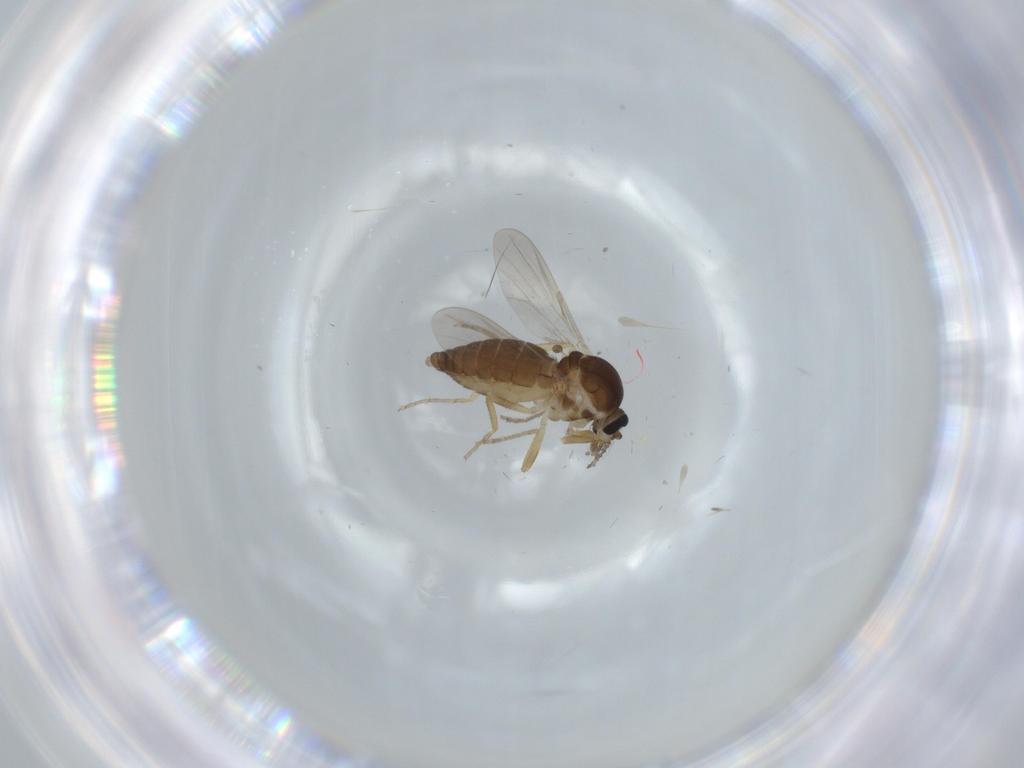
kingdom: Animalia
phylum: Arthropoda
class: Insecta
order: Diptera
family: Ceratopogonidae
